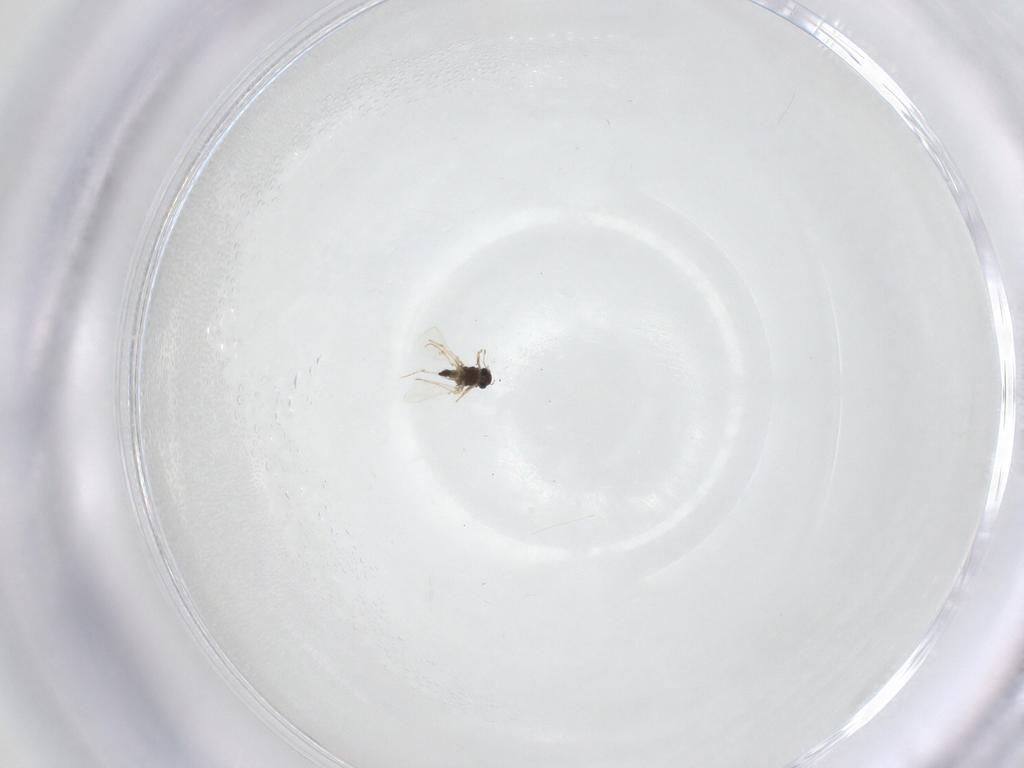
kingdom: Animalia
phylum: Arthropoda
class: Insecta
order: Diptera
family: Chironomidae
